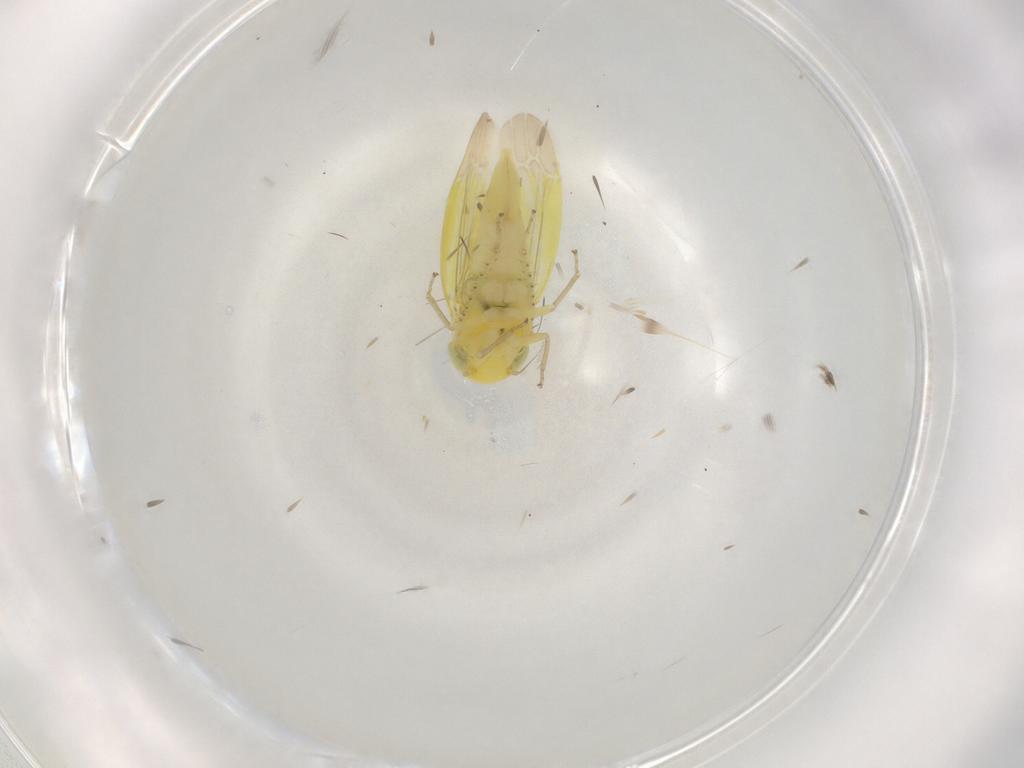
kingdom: Animalia
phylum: Arthropoda
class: Insecta
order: Hemiptera
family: Cicadellidae
